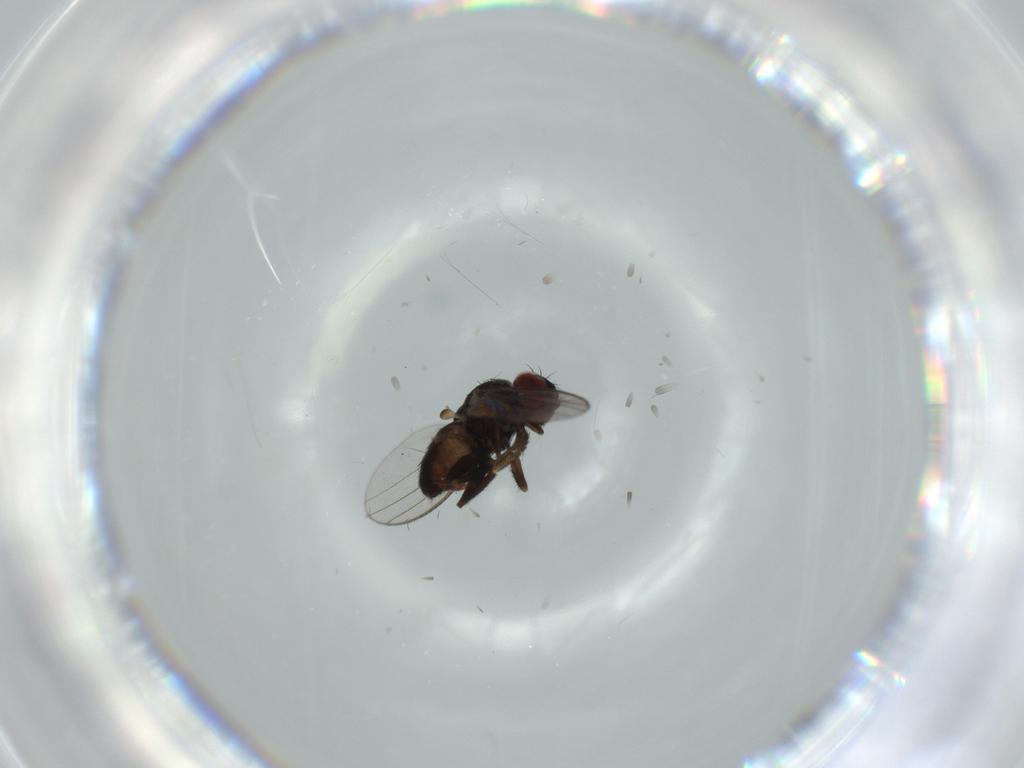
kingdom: Animalia
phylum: Arthropoda
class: Insecta
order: Diptera
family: Milichiidae
